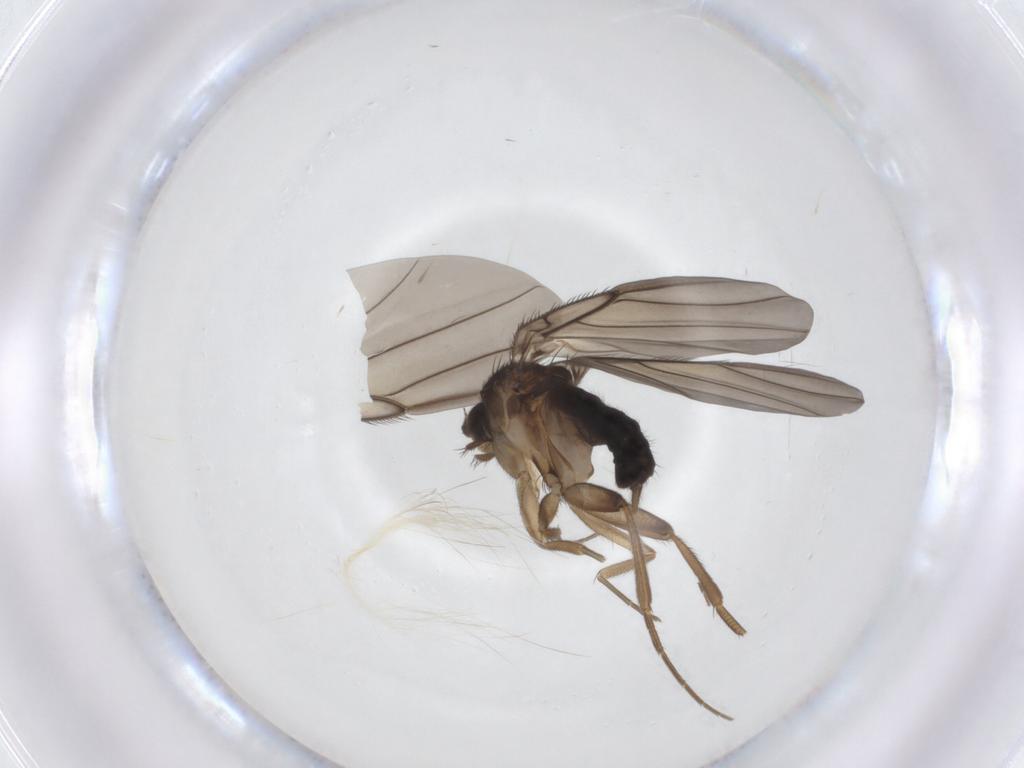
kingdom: Animalia
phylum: Arthropoda
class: Insecta
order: Diptera
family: Phoridae
